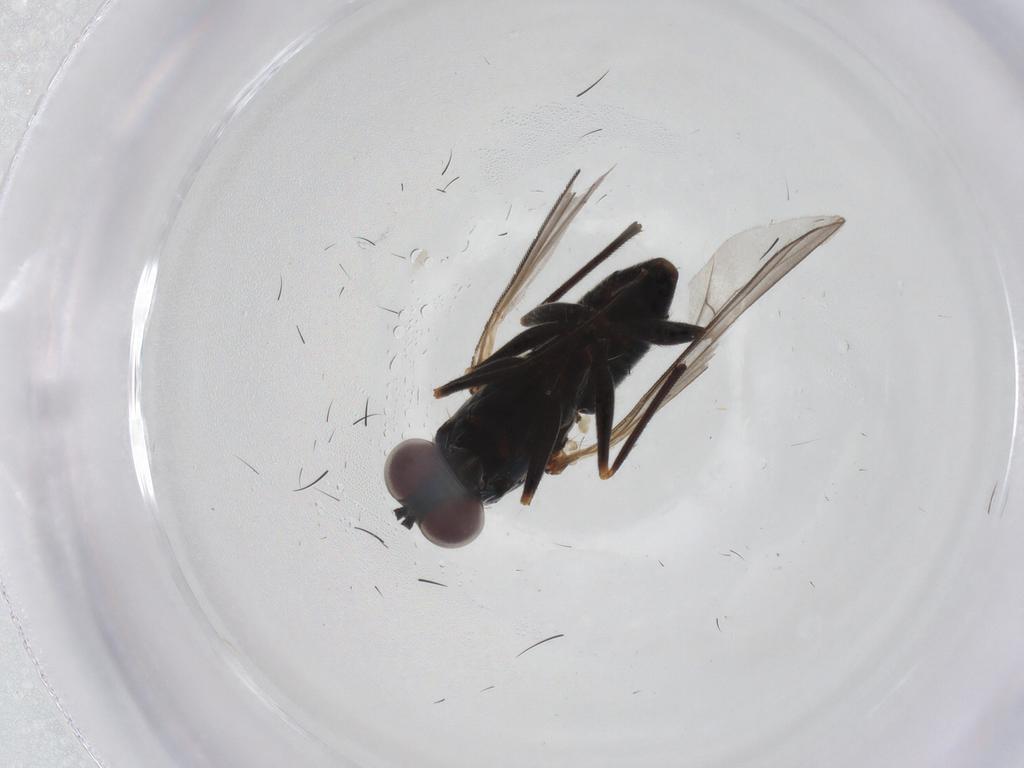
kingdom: Animalia
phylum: Arthropoda
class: Insecta
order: Diptera
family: Dolichopodidae
